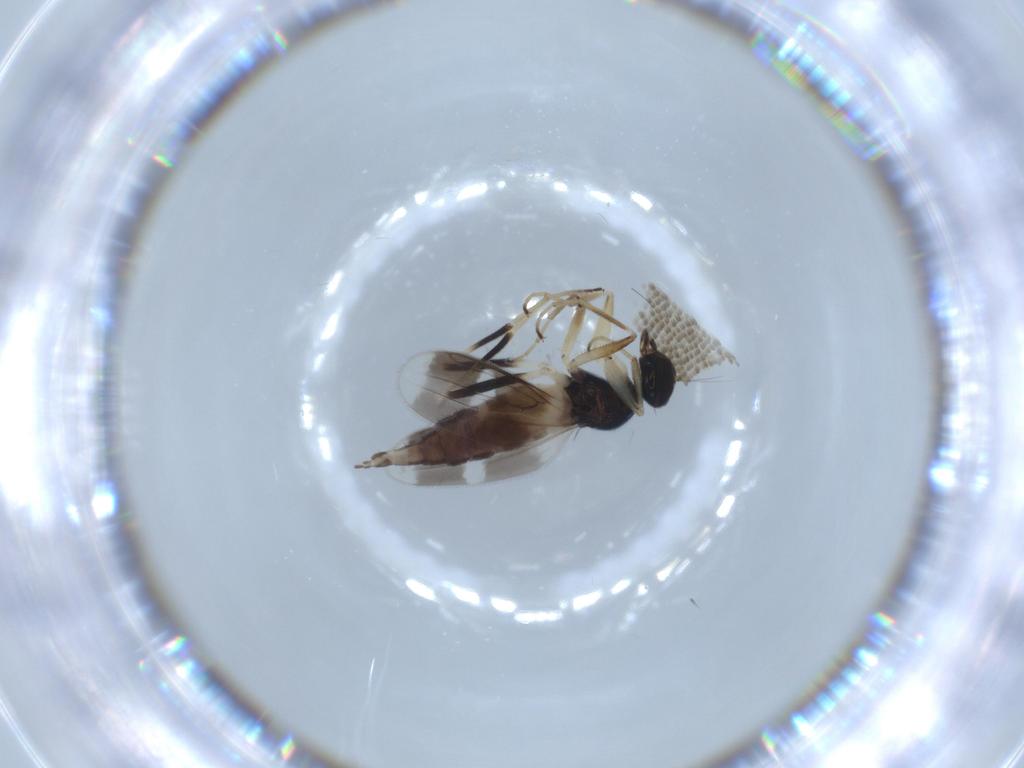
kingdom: Animalia
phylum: Arthropoda
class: Insecta
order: Diptera
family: Hybotidae
